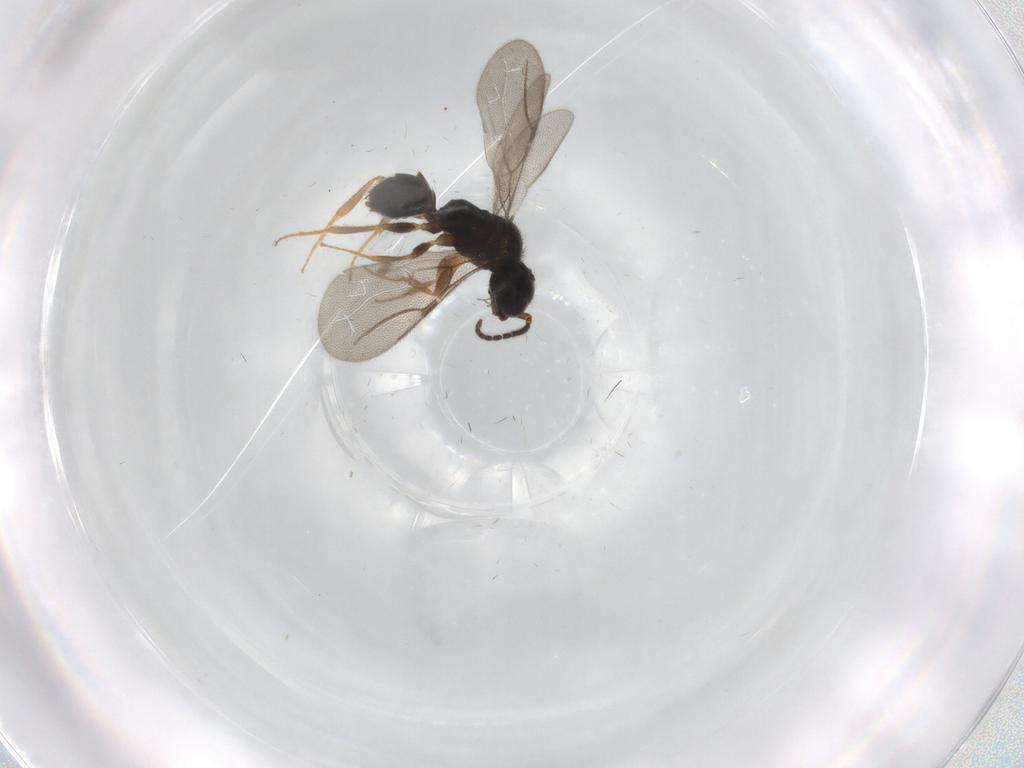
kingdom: Animalia
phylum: Arthropoda
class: Insecta
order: Hymenoptera
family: Bethylidae
